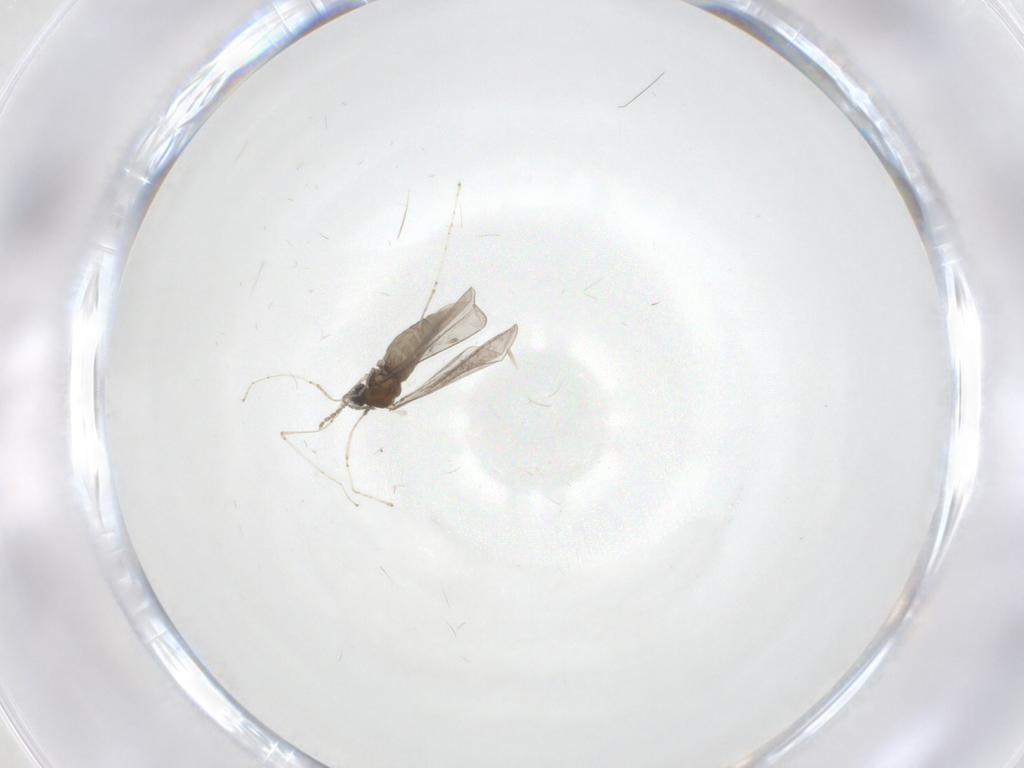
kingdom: Animalia
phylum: Arthropoda
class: Insecta
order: Diptera
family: Cecidomyiidae
